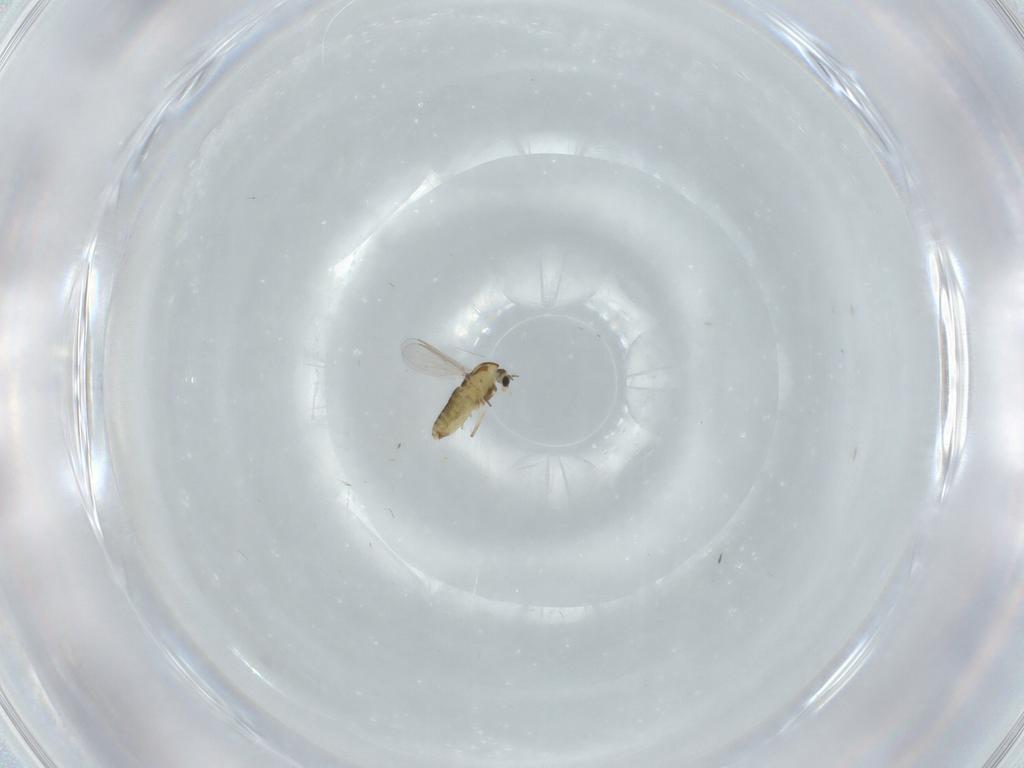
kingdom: Animalia
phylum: Arthropoda
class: Insecta
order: Diptera
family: Chironomidae
